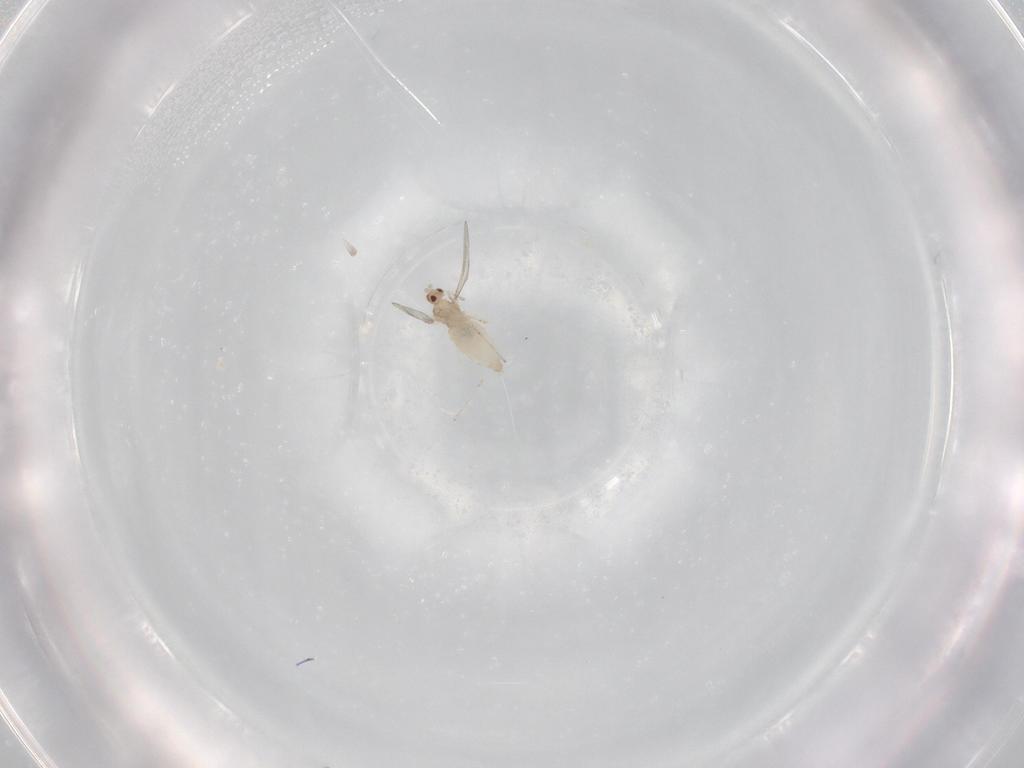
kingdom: Animalia
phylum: Arthropoda
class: Insecta
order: Diptera
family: Cecidomyiidae
